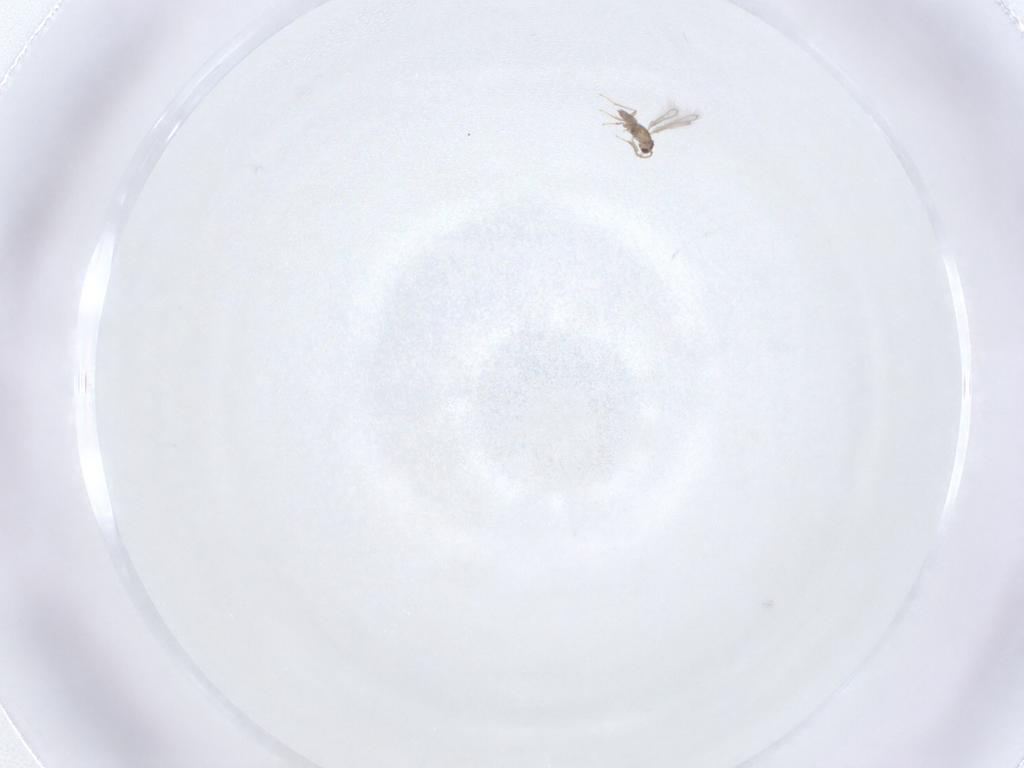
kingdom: Animalia
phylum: Arthropoda
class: Insecta
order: Hymenoptera
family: Mymaridae
